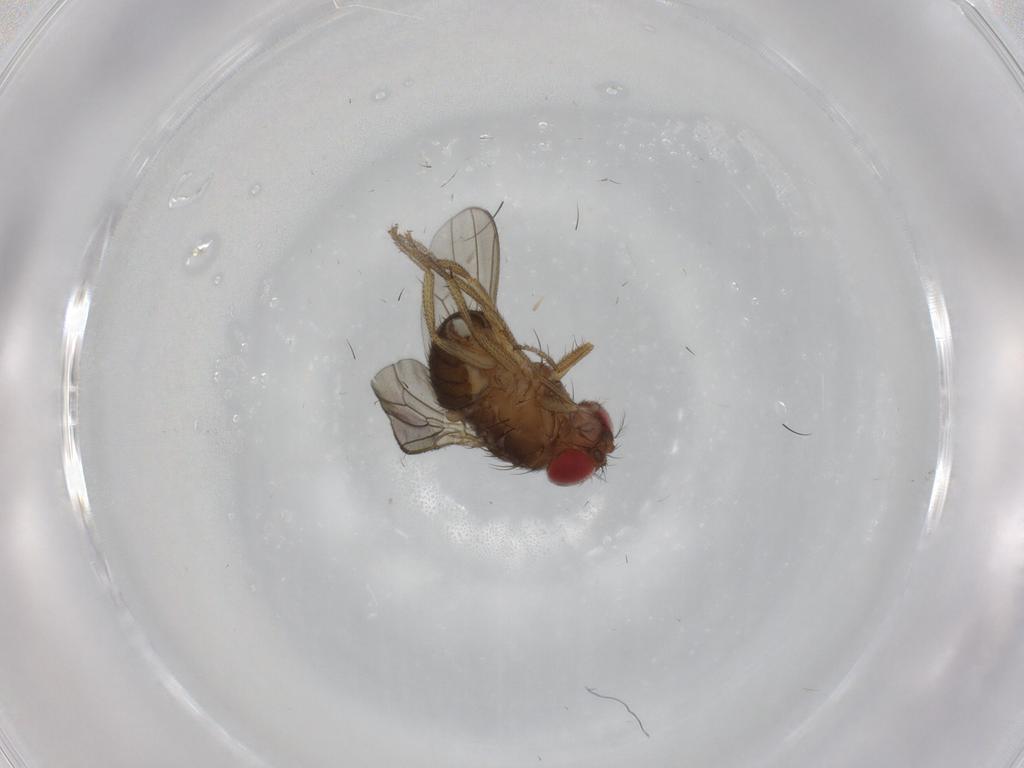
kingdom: Animalia
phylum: Arthropoda
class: Insecta
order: Diptera
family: Drosophilidae
